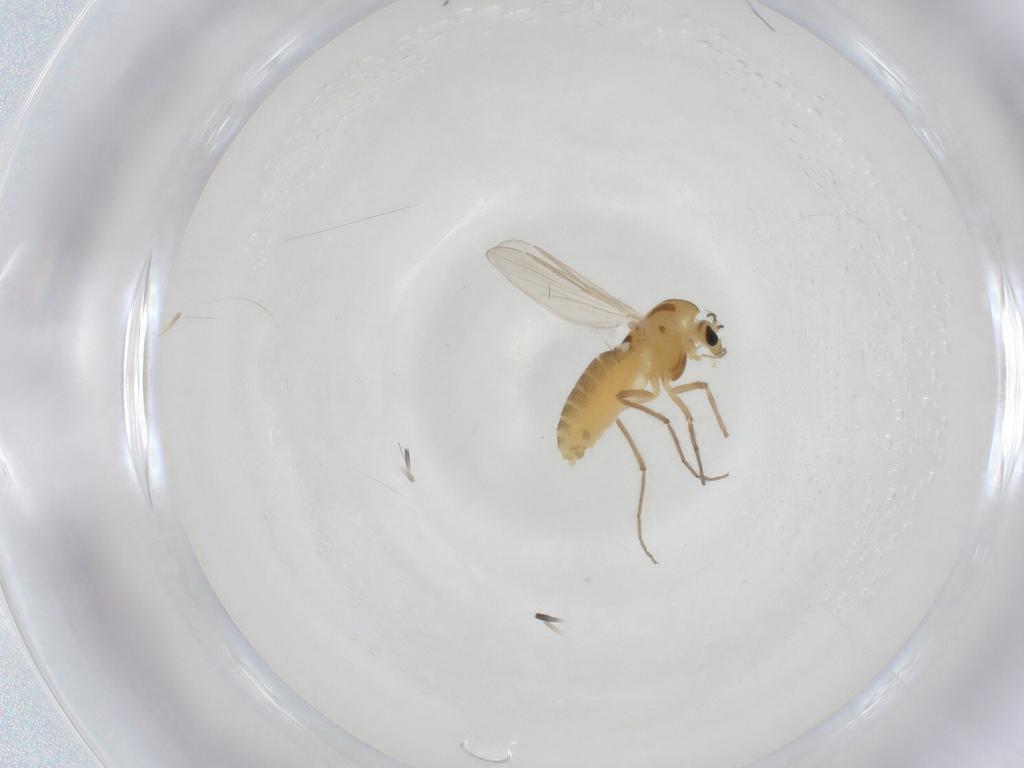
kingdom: Animalia
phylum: Arthropoda
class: Insecta
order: Diptera
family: Chironomidae
